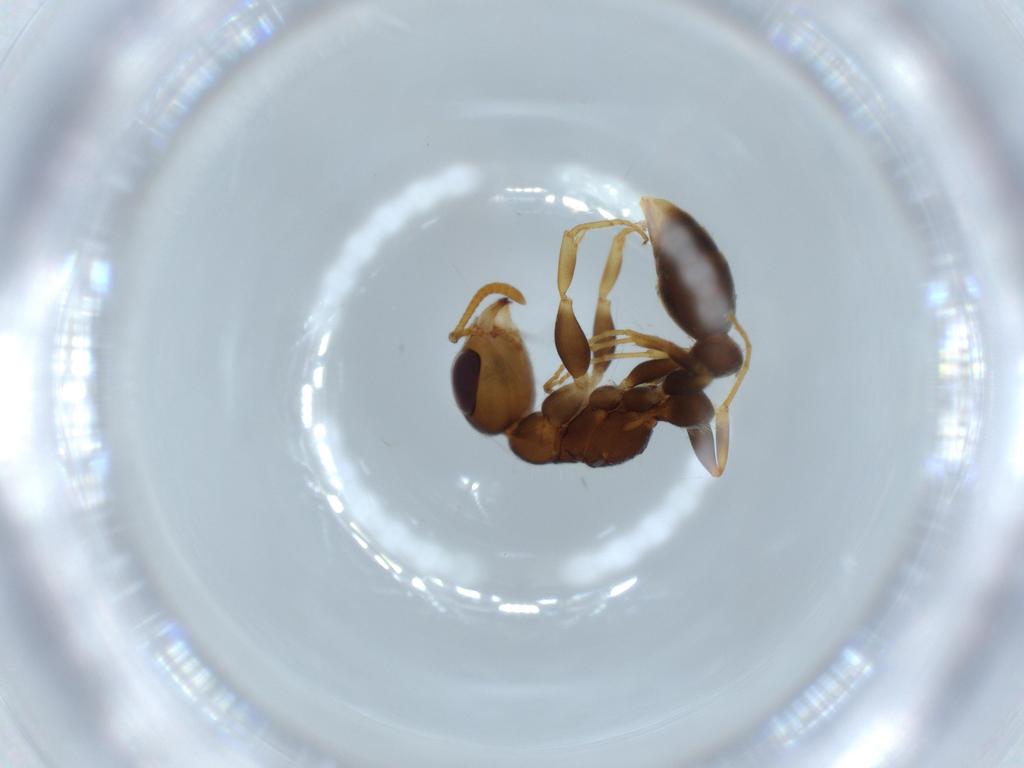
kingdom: Animalia
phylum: Arthropoda
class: Insecta
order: Hymenoptera
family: Formicidae
